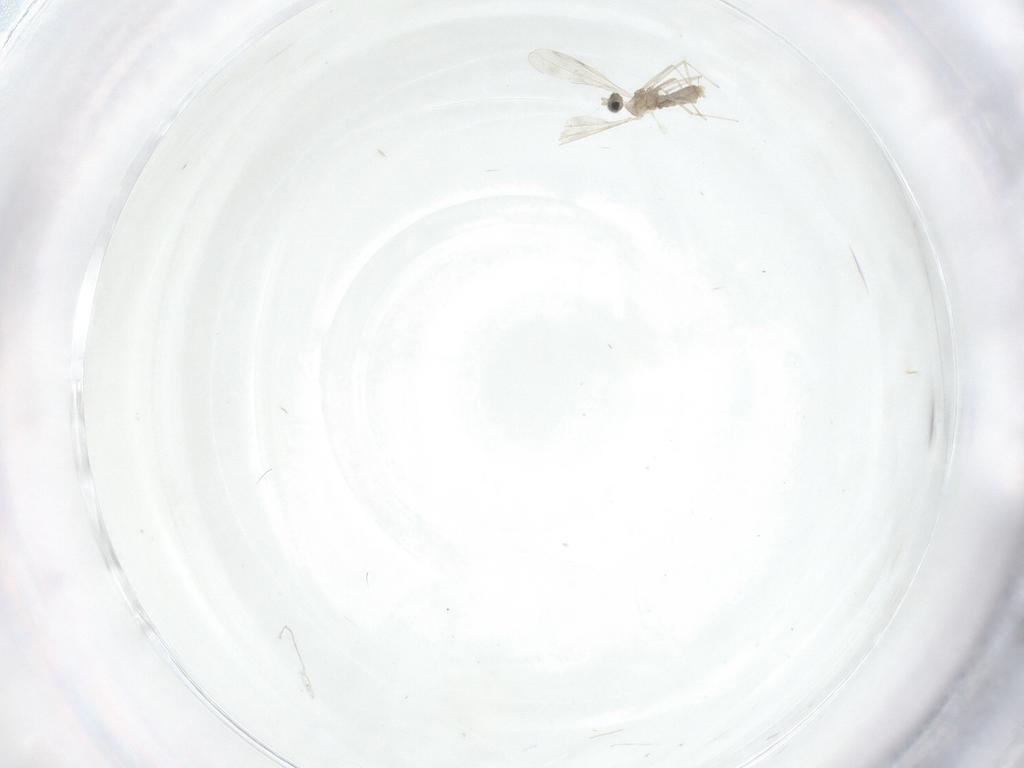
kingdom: Animalia
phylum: Arthropoda
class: Insecta
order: Diptera
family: Cecidomyiidae
